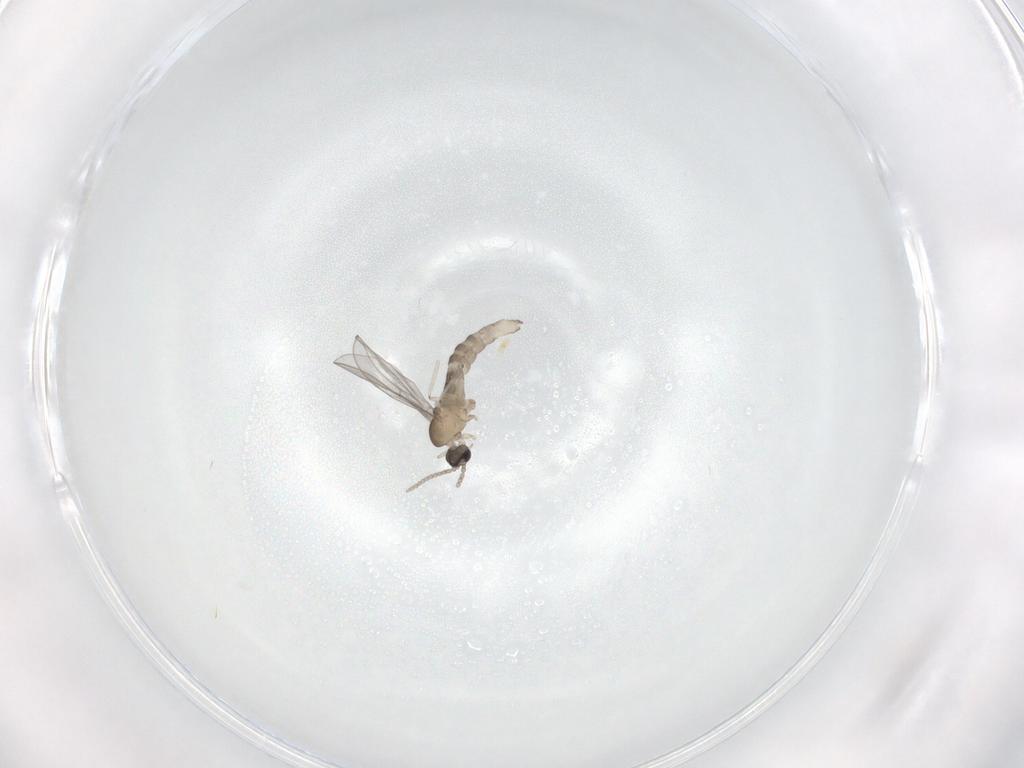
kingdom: Animalia
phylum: Arthropoda
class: Insecta
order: Diptera
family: Cecidomyiidae
